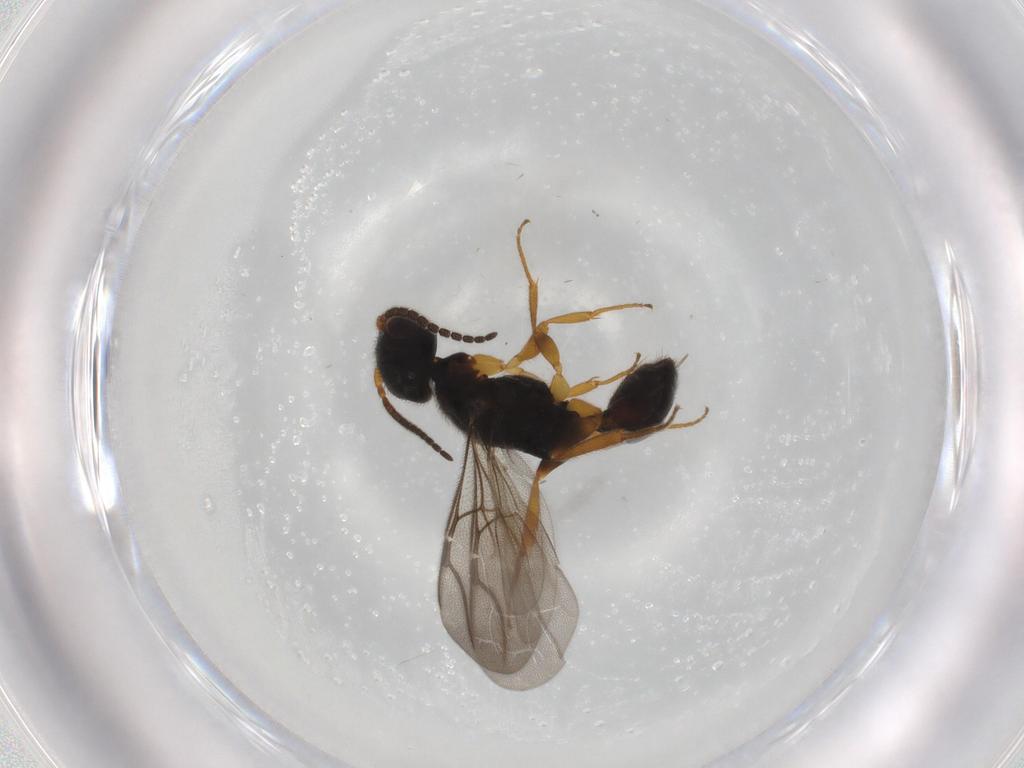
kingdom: Animalia
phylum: Arthropoda
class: Insecta
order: Hymenoptera
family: Bethylidae
